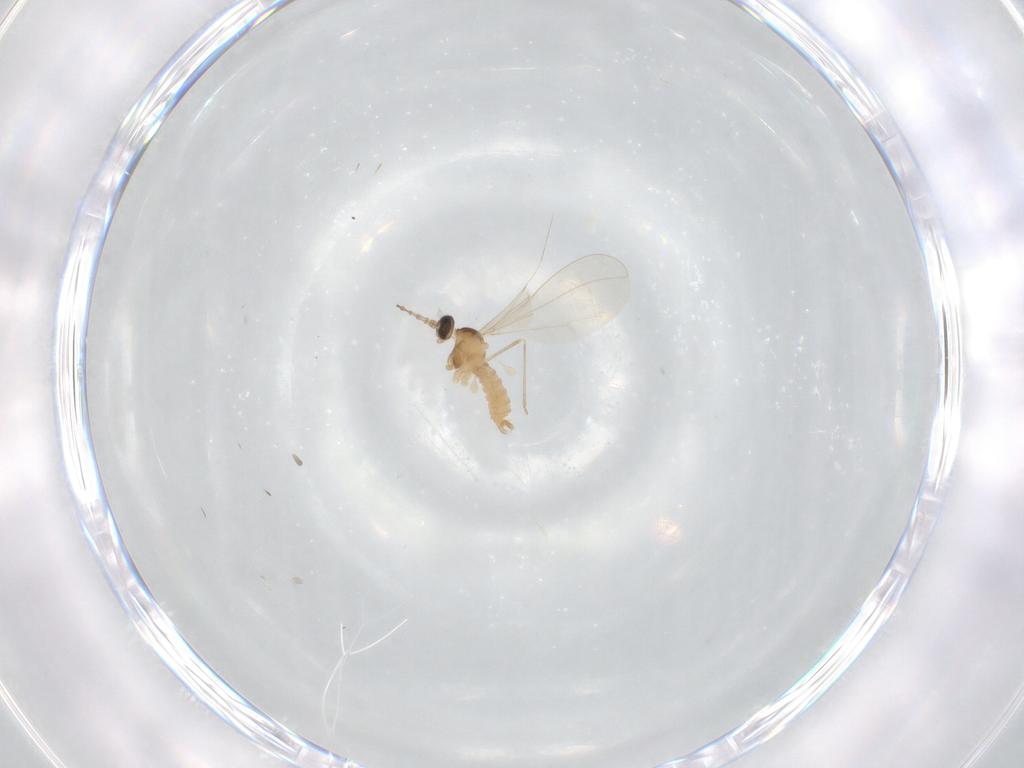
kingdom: Animalia
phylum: Arthropoda
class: Insecta
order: Diptera
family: Cecidomyiidae
